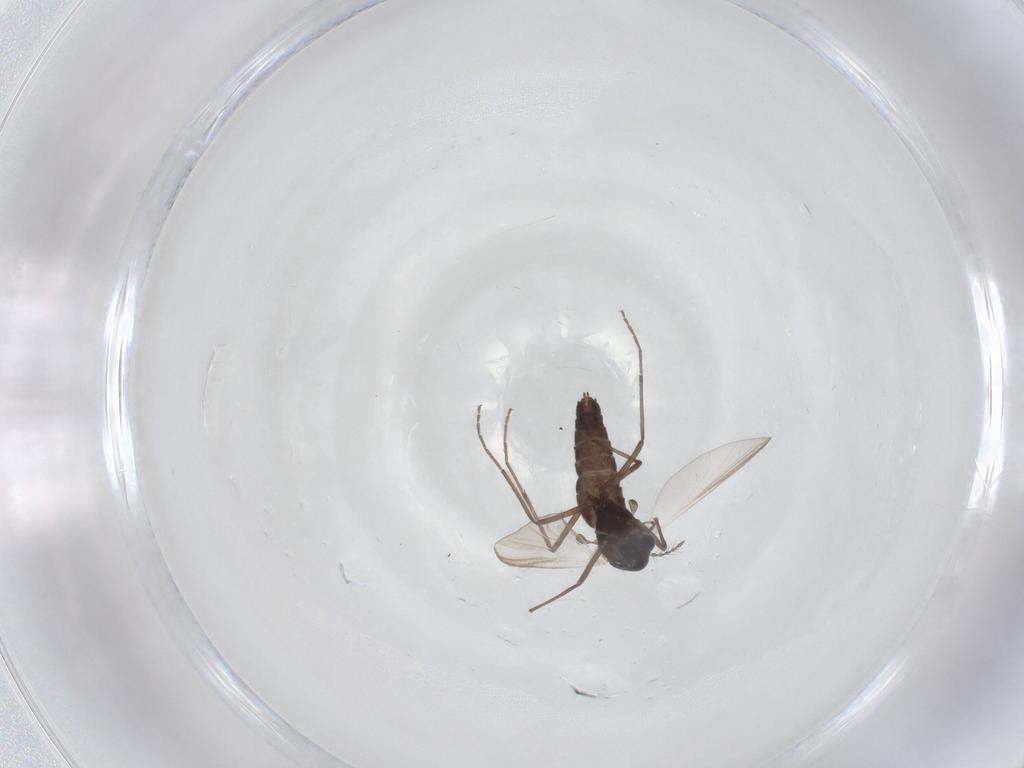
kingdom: Animalia
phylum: Arthropoda
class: Insecta
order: Diptera
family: Chironomidae
